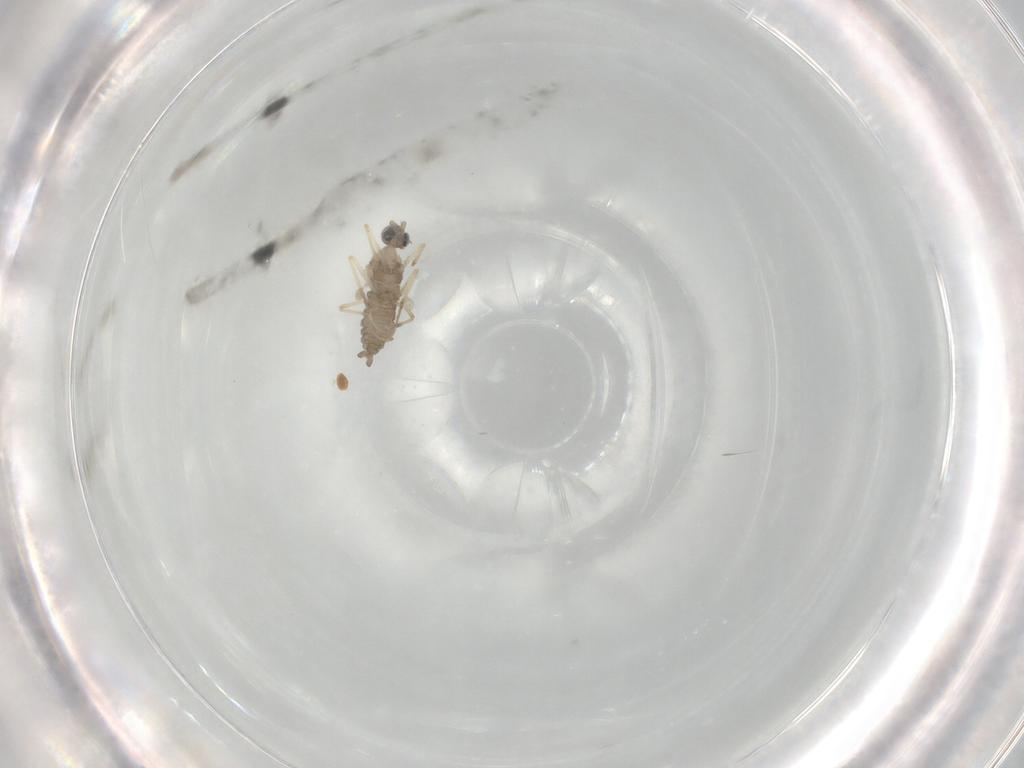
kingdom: Animalia
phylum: Arthropoda
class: Insecta
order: Diptera
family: Cecidomyiidae
